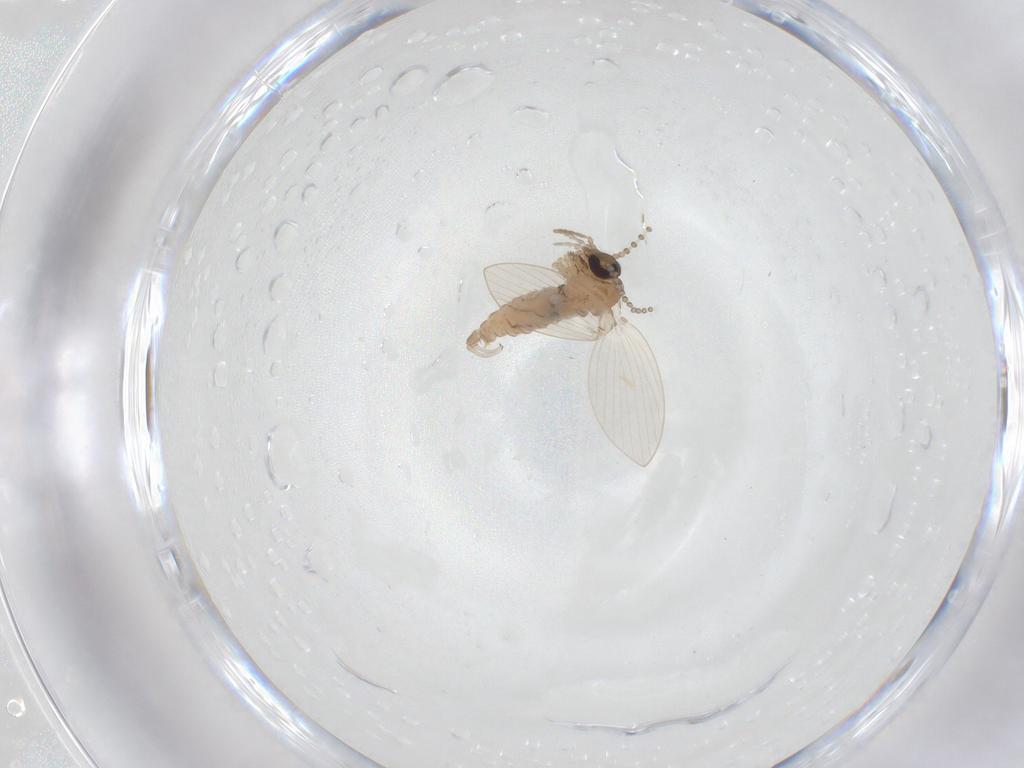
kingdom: Animalia
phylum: Arthropoda
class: Insecta
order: Diptera
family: Psychodidae
